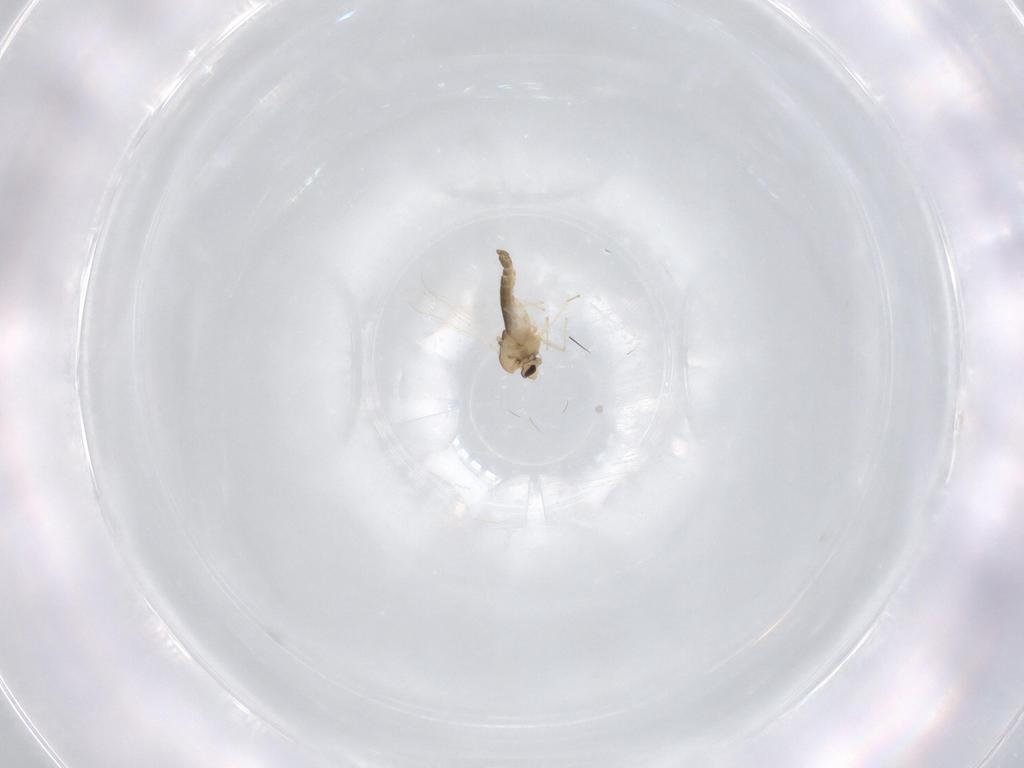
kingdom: Animalia
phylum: Arthropoda
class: Insecta
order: Diptera
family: Chironomidae
